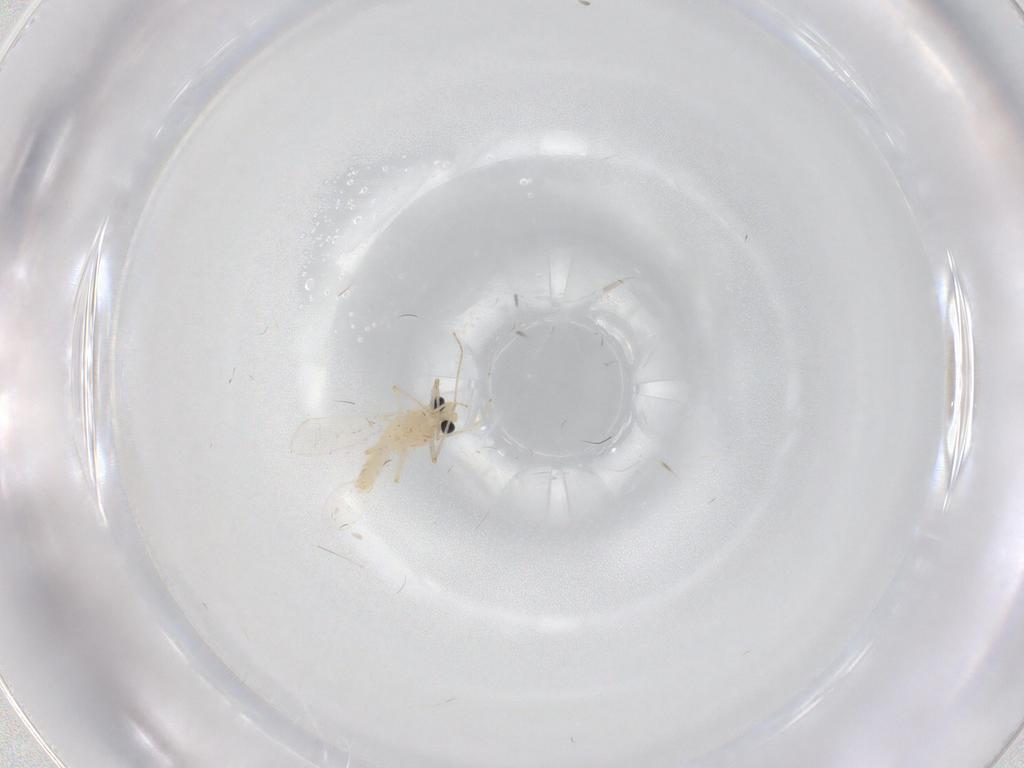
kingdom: Animalia
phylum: Arthropoda
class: Insecta
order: Diptera
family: Chironomidae
